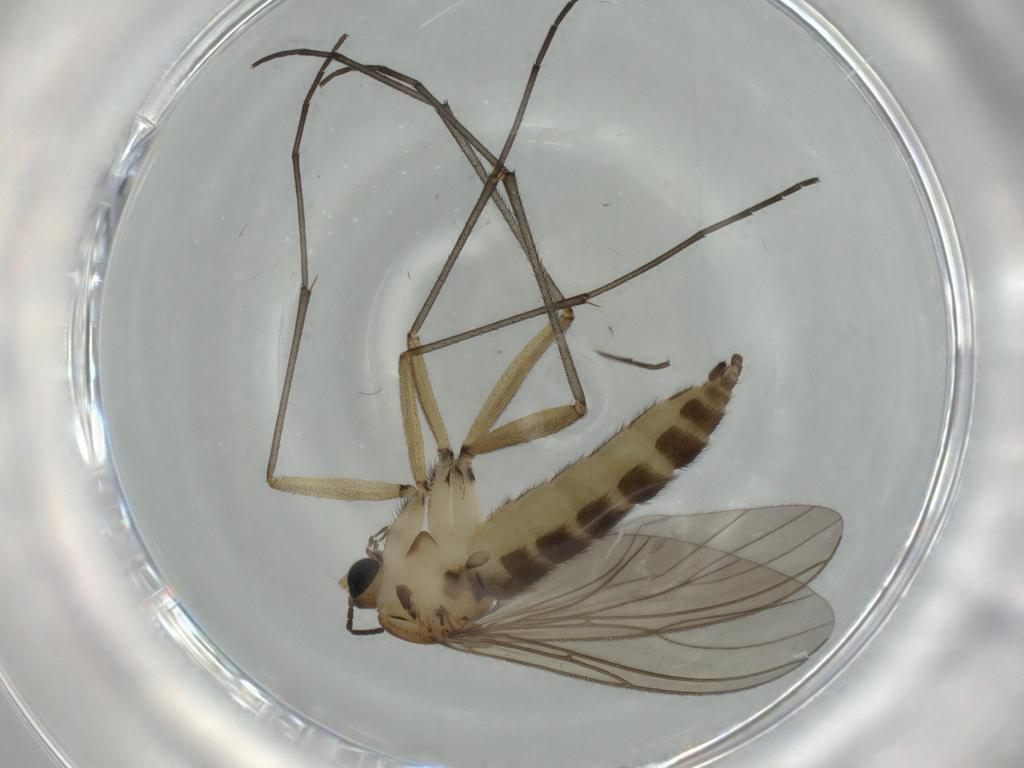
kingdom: Animalia
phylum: Arthropoda
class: Insecta
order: Diptera
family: Sciaridae
